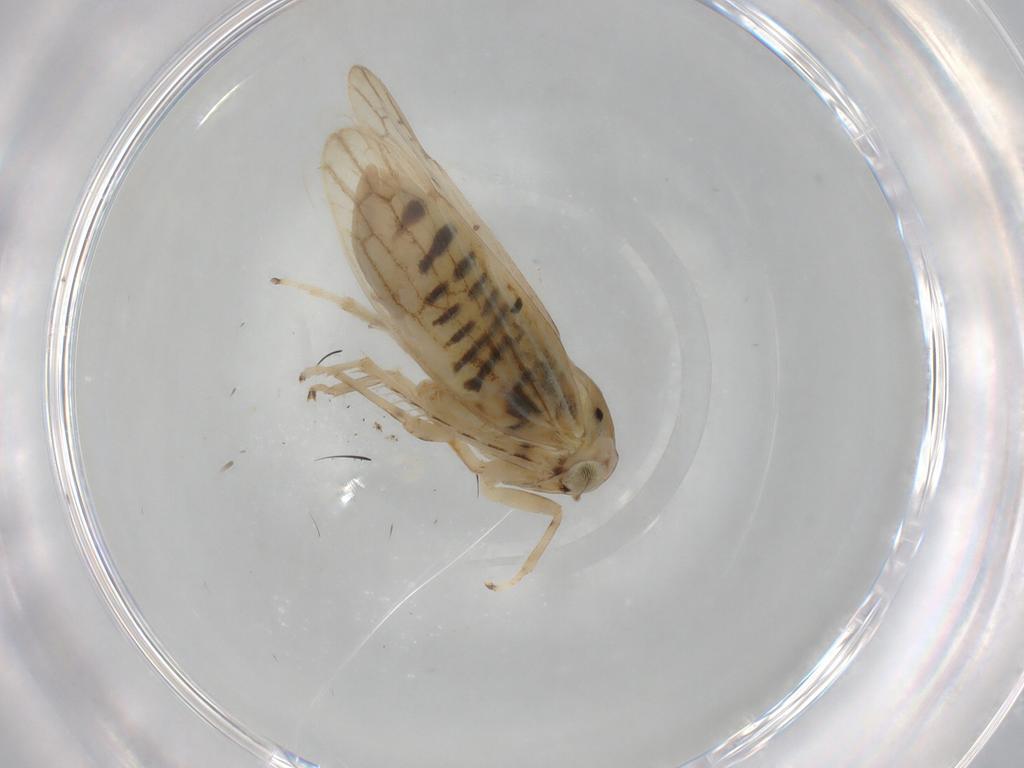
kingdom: Animalia
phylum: Arthropoda
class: Insecta
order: Hemiptera
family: Cicadellidae
